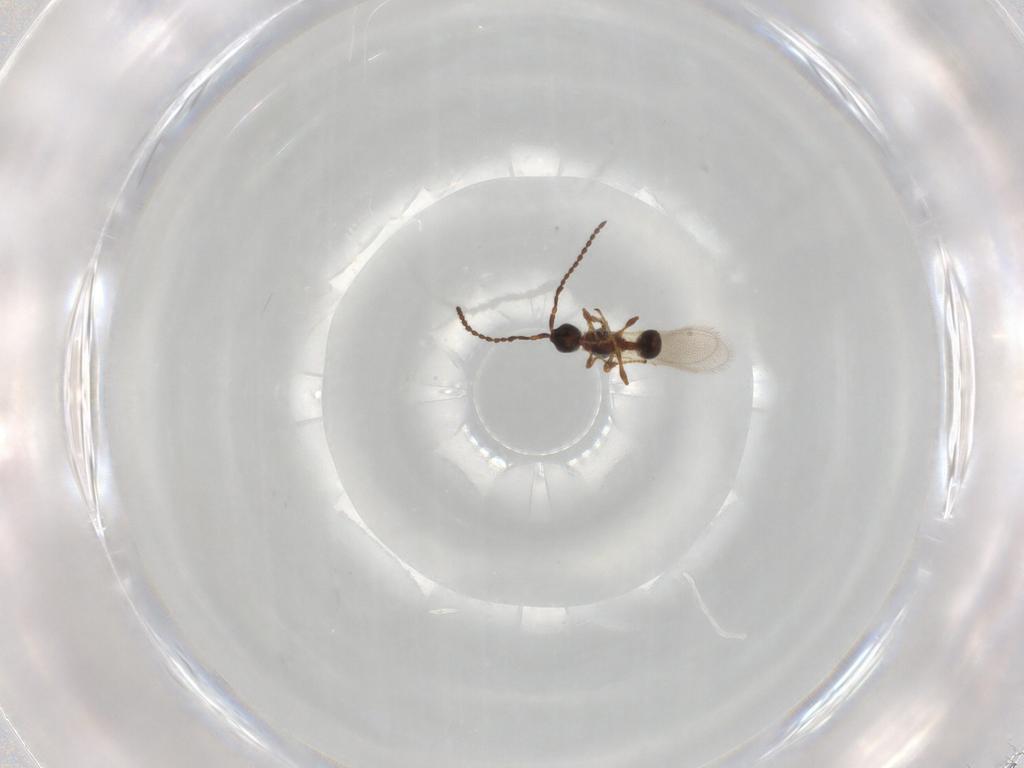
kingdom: Animalia
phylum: Arthropoda
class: Insecta
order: Hymenoptera
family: Diapriidae
